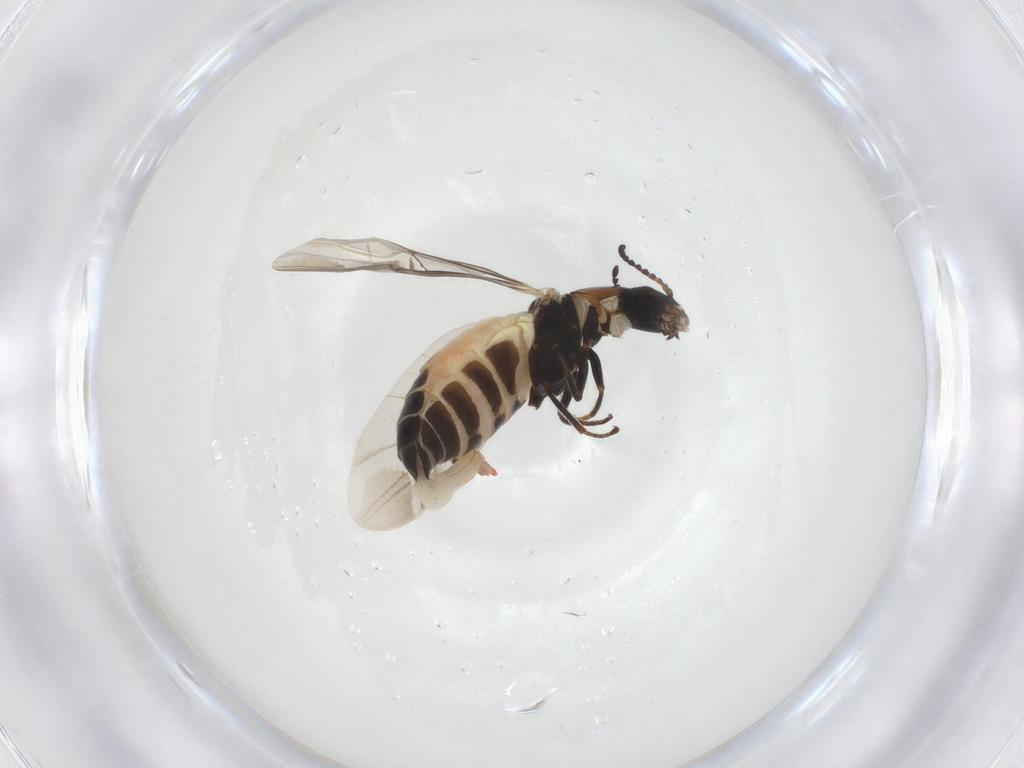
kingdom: Animalia
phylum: Arthropoda
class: Insecta
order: Coleoptera
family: Melyridae
